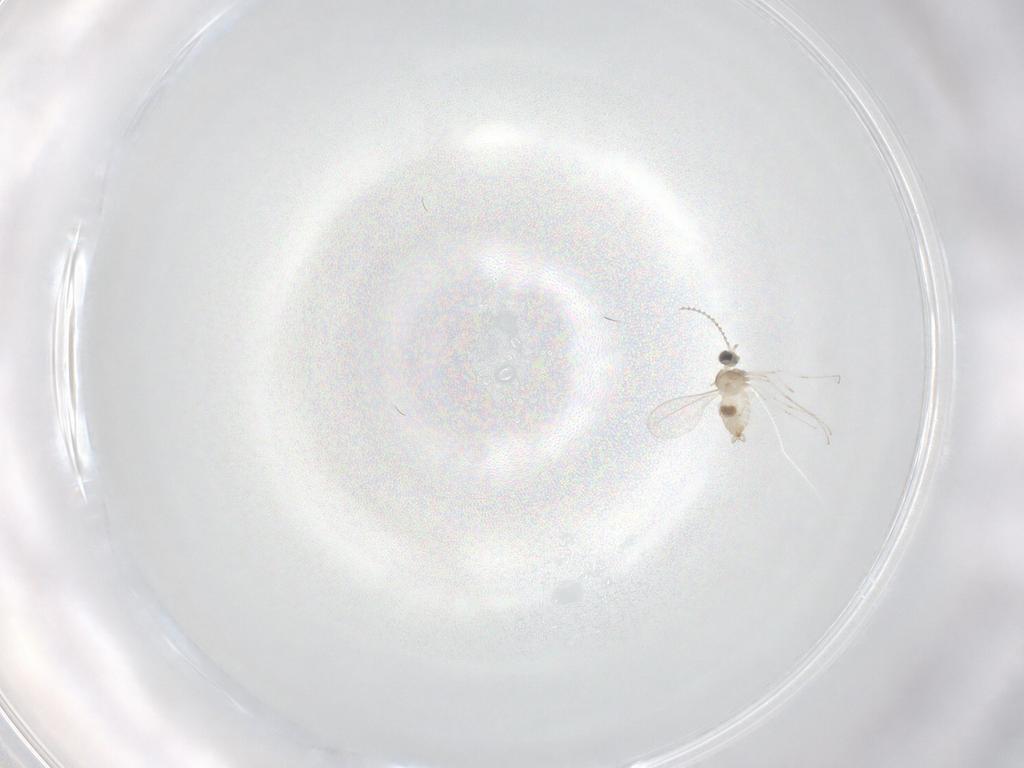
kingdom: Animalia
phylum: Arthropoda
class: Insecta
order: Diptera
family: Cecidomyiidae
